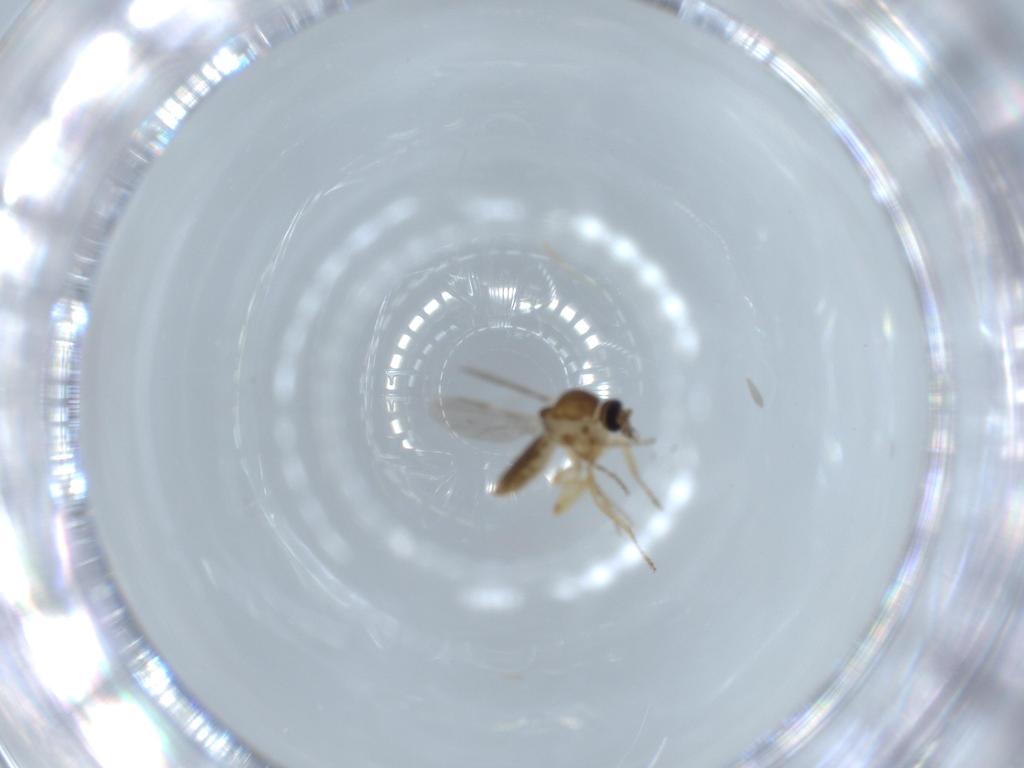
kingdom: Animalia
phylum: Arthropoda
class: Insecta
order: Diptera
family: Ceratopogonidae
